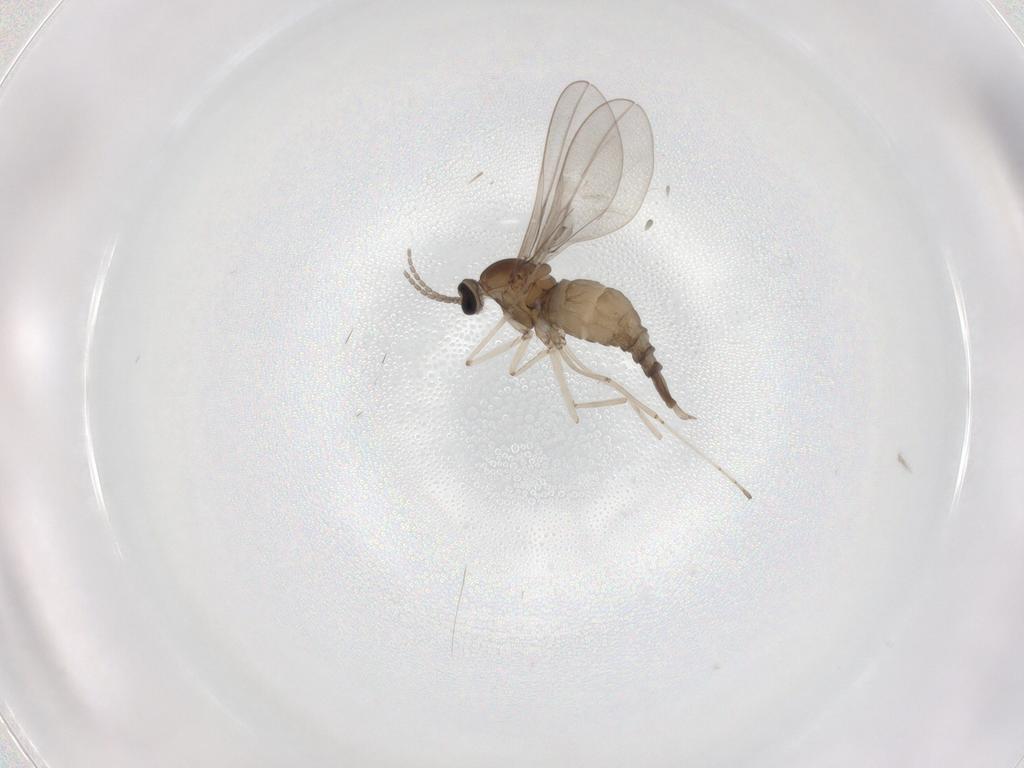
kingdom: Animalia
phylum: Arthropoda
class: Insecta
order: Diptera
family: Cecidomyiidae
